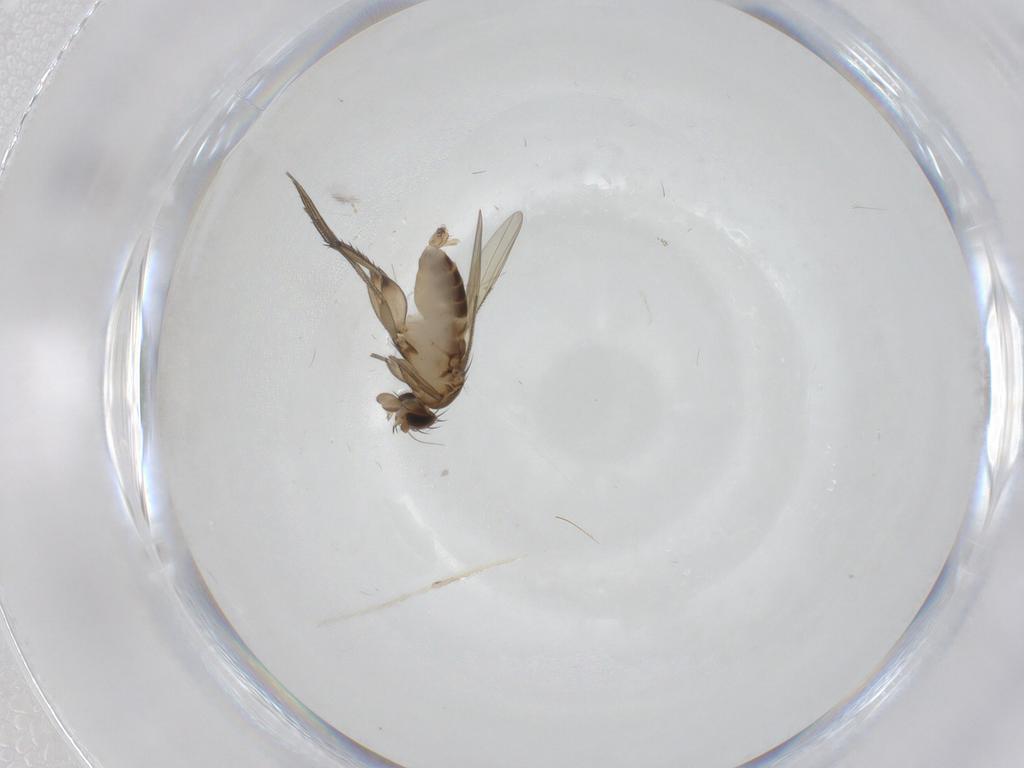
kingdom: Animalia
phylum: Arthropoda
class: Insecta
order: Diptera
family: Phoridae
